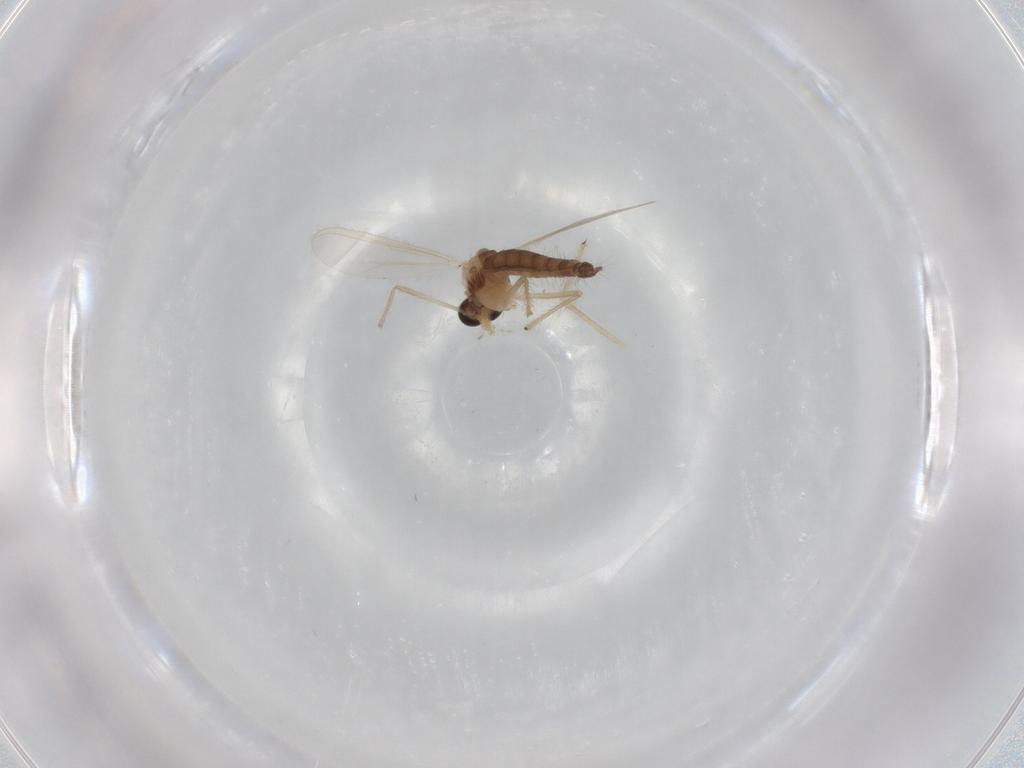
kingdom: Animalia
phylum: Arthropoda
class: Insecta
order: Diptera
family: Chironomidae
